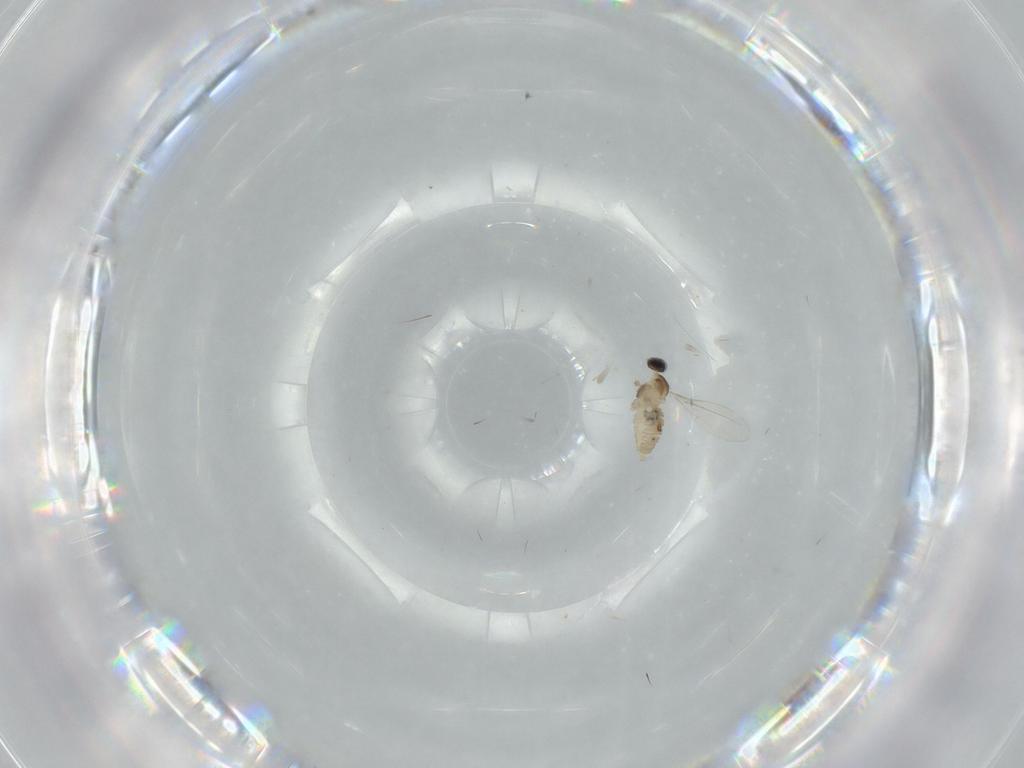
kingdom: Animalia
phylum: Arthropoda
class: Insecta
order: Diptera
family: Cecidomyiidae
